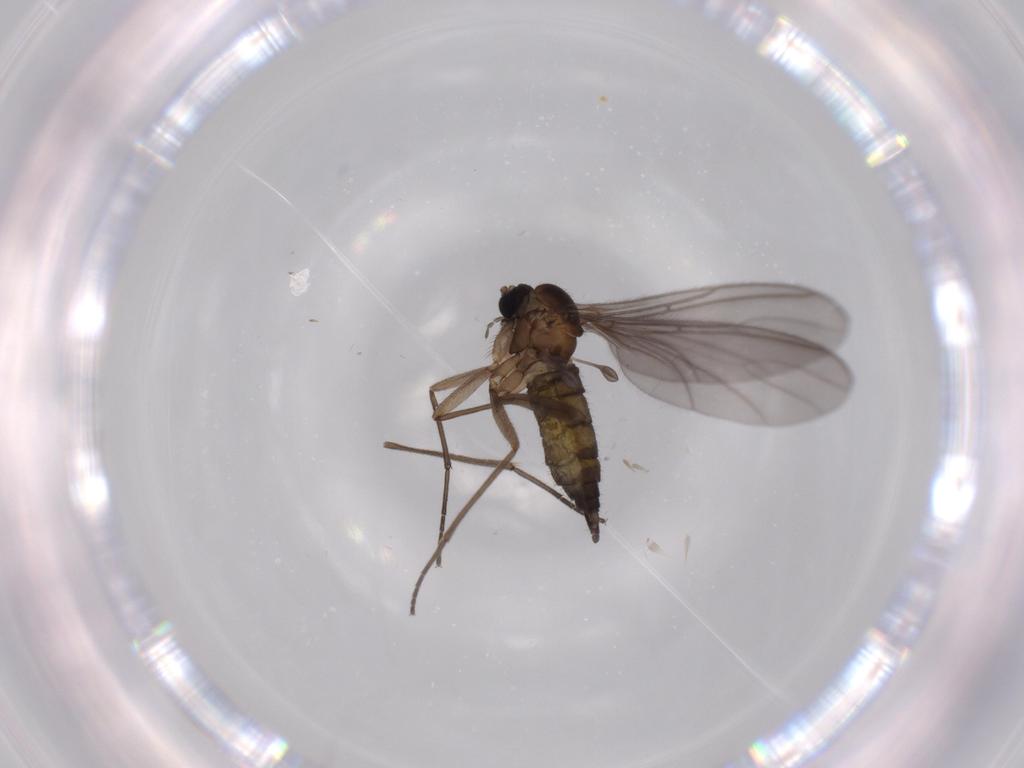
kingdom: Animalia
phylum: Arthropoda
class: Insecta
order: Diptera
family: Sciaridae
